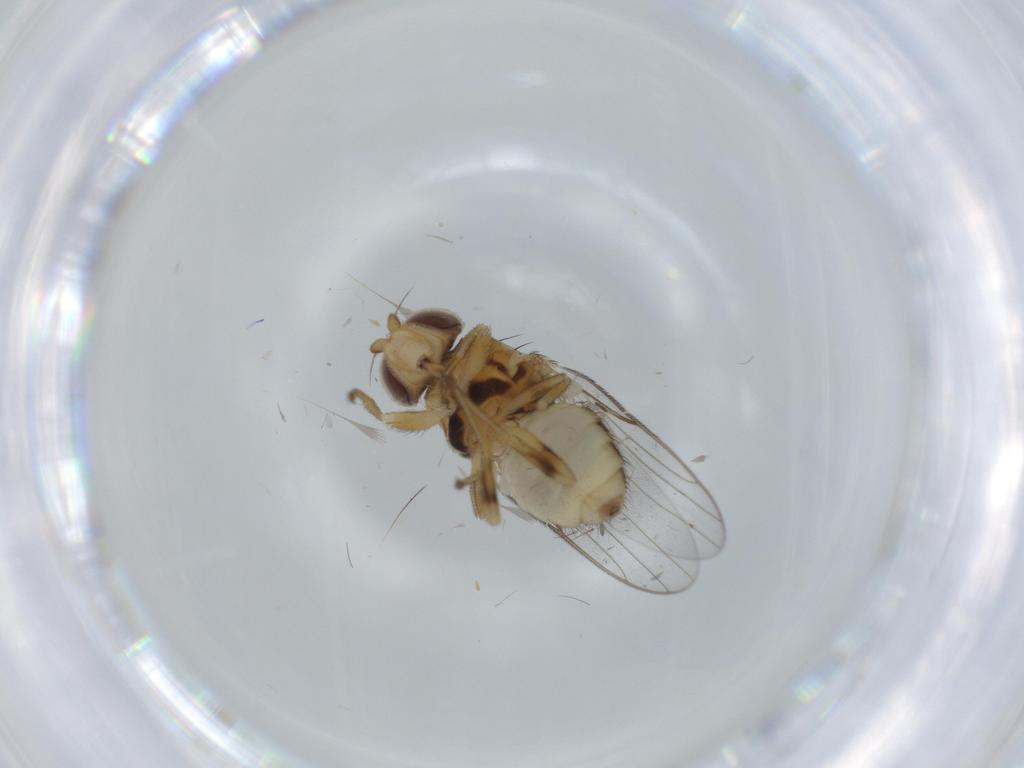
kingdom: Animalia
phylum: Arthropoda
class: Insecta
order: Diptera
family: Chloropidae
